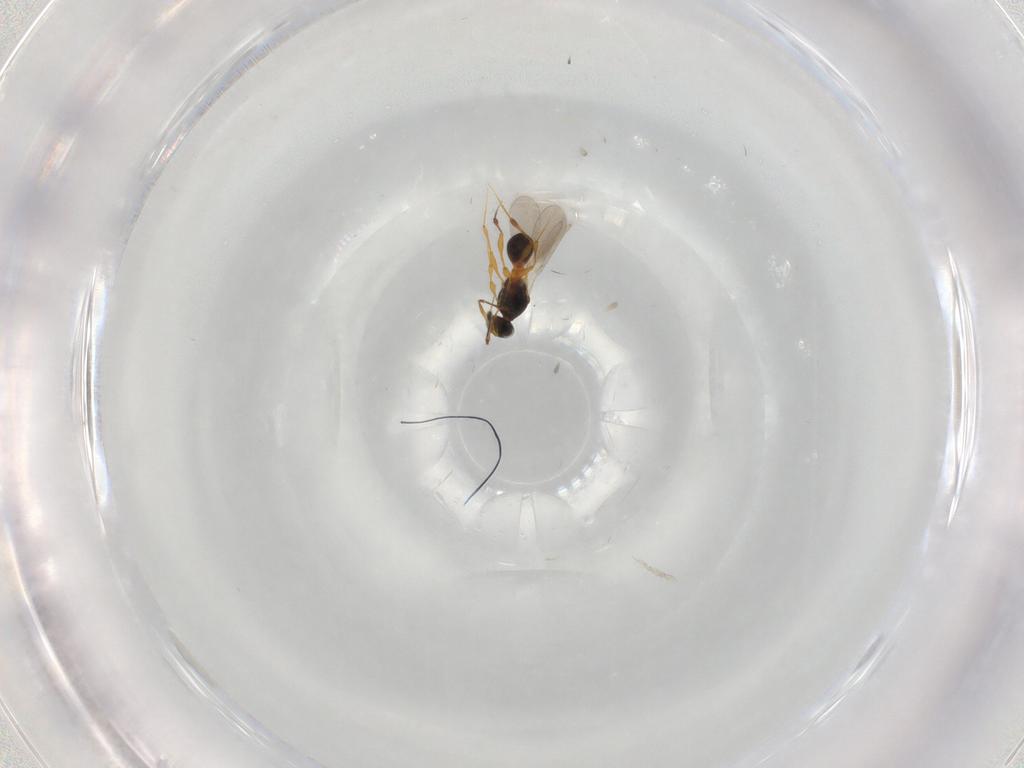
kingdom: Animalia
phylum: Arthropoda
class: Insecta
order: Hymenoptera
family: Platygastridae
